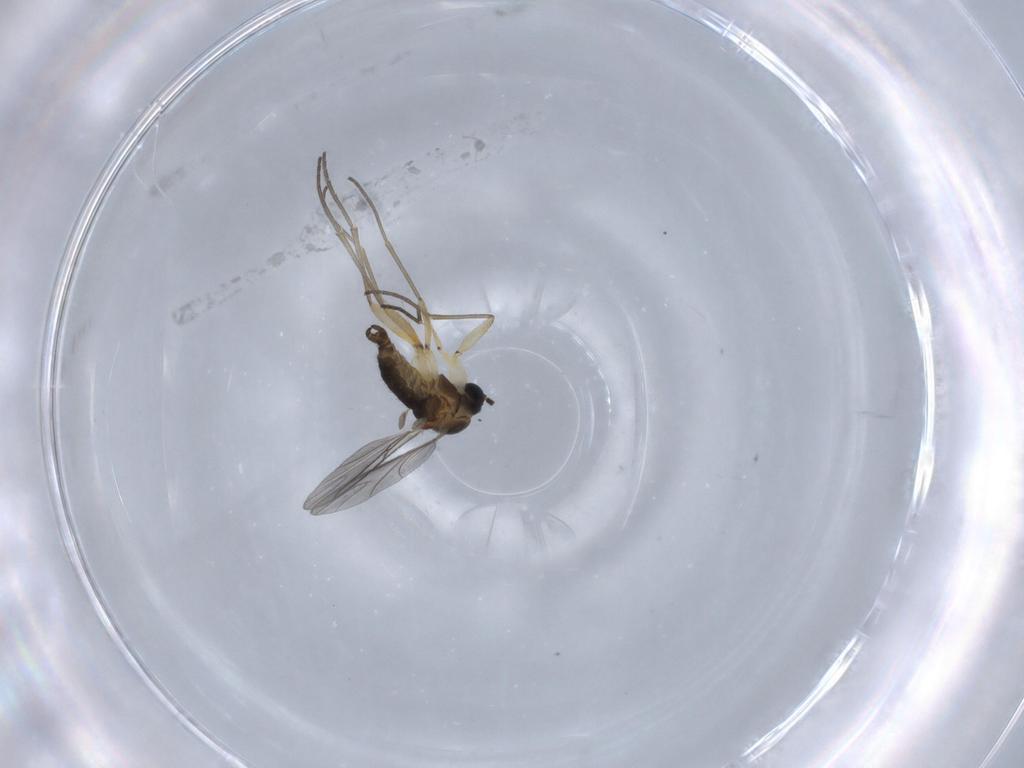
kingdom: Animalia
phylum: Arthropoda
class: Insecta
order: Diptera
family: Sciaridae
